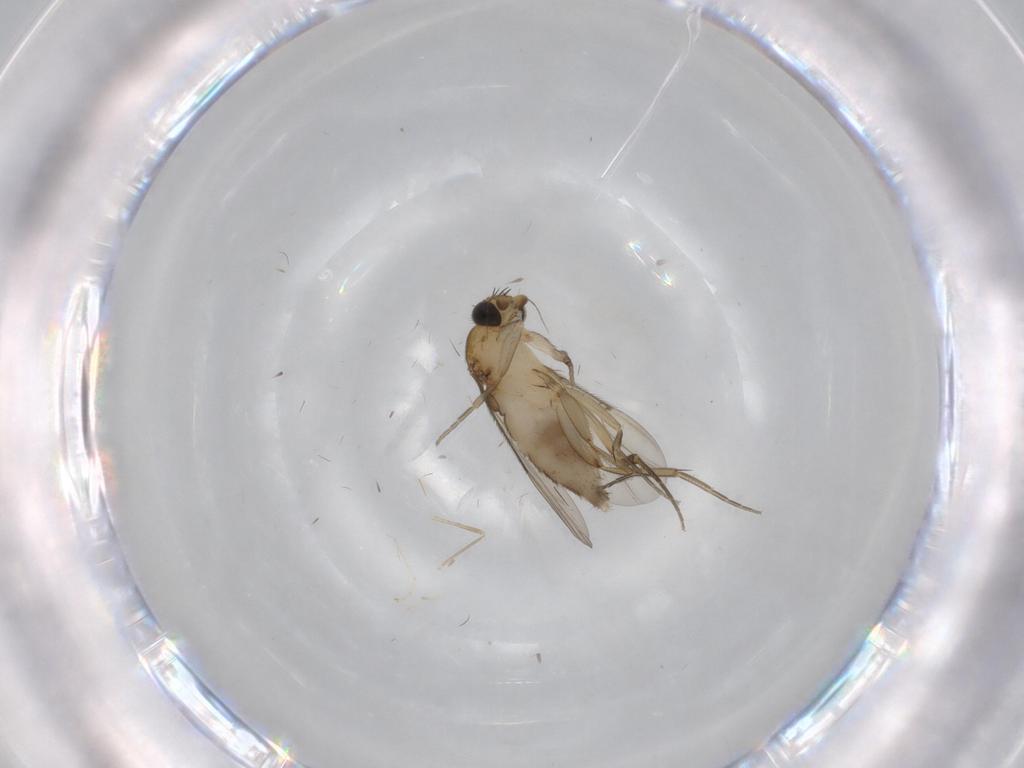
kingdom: Animalia
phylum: Arthropoda
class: Insecta
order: Diptera
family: Phoridae
